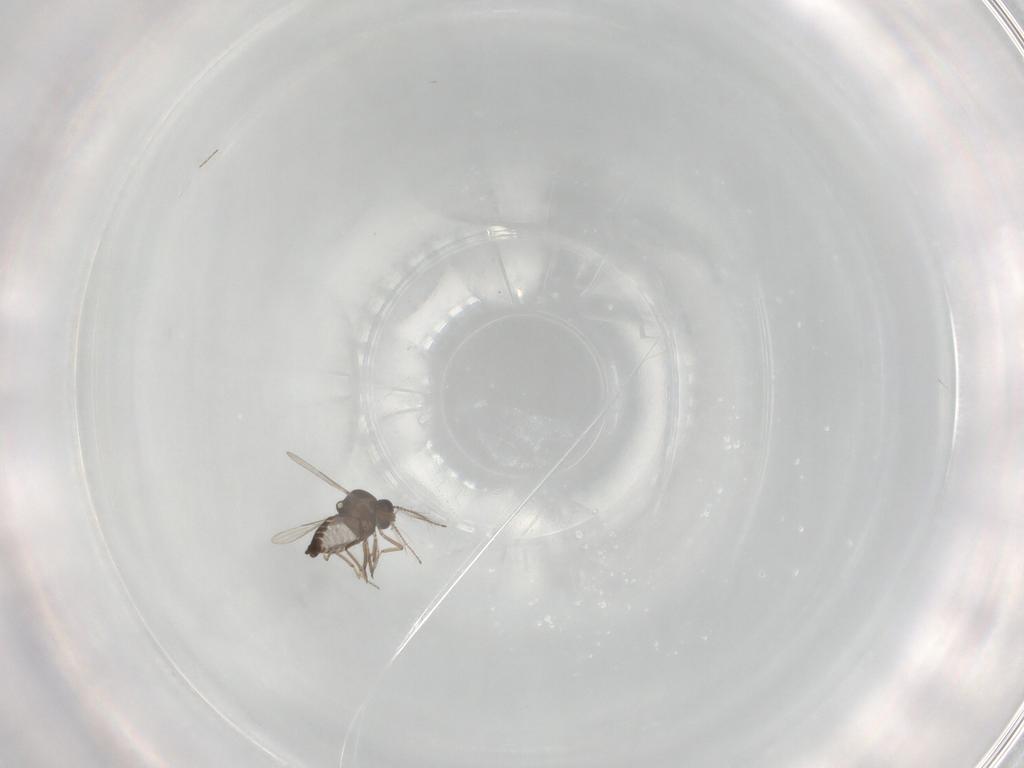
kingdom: Animalia
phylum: Arthropoda
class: Insecta
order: Diptera
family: Ceratopogonidae
